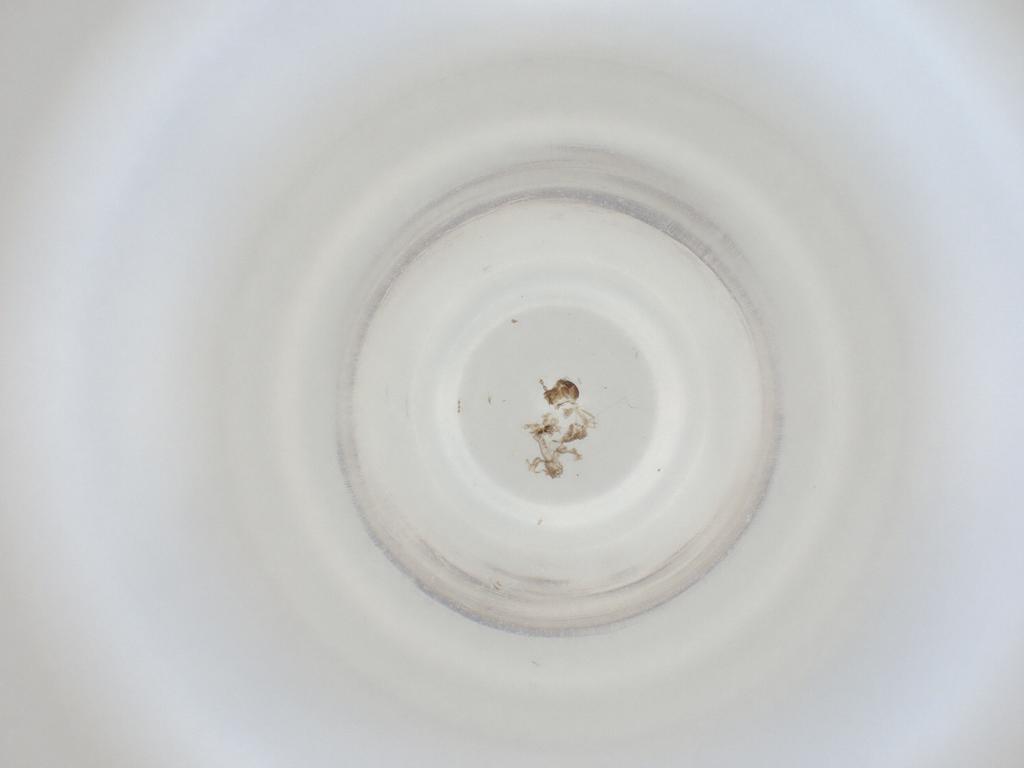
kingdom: Animalia
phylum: Arthropoda
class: Insecta
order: Diptera
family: Cecidomyiidae
